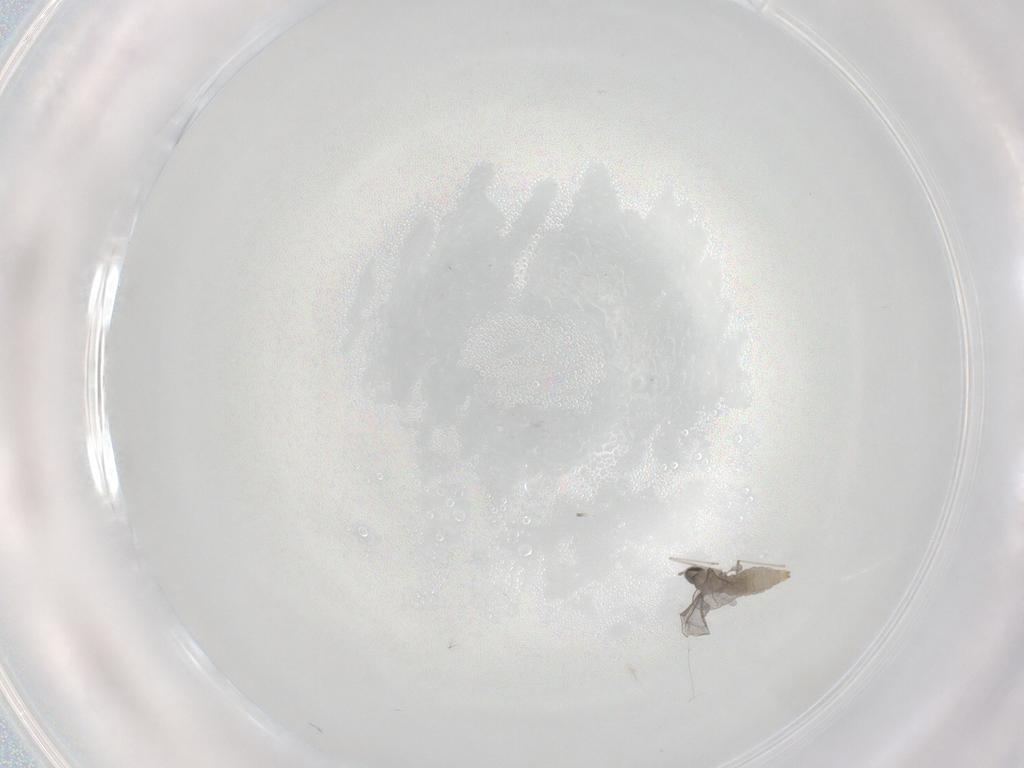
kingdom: Animalia
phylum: Arthropoda
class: Insecta
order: Diptera
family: Cecidomyiidae
